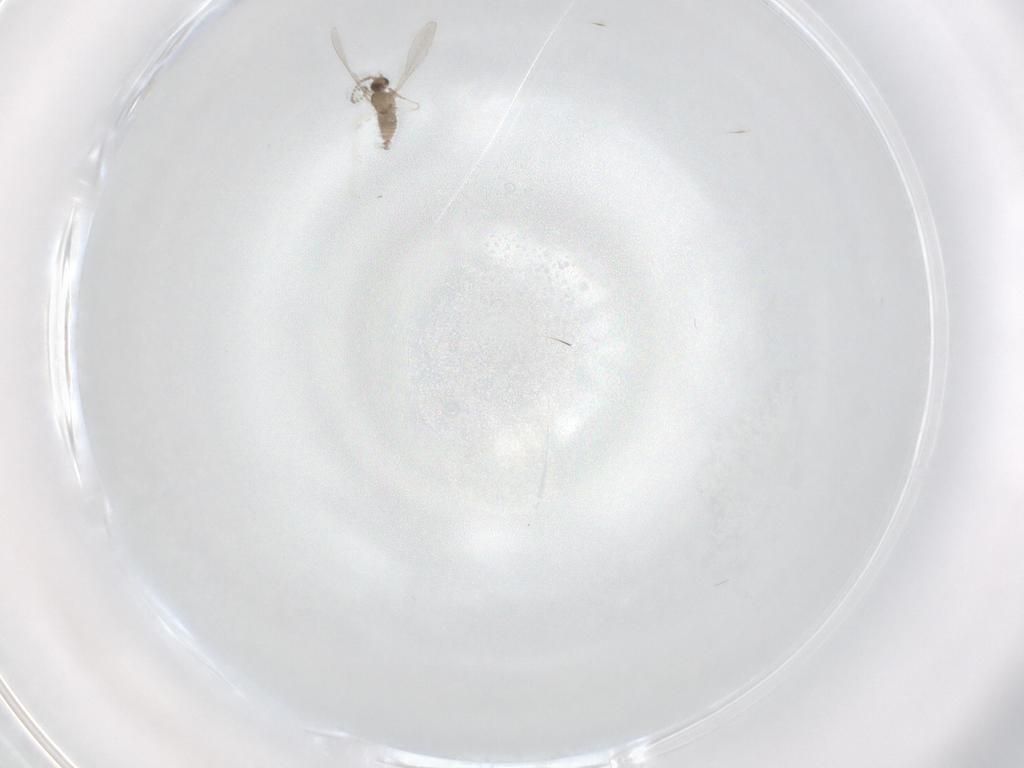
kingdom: Animalia
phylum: Arthropoda
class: Insecta
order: Diptera
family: Cecidomyiidae
